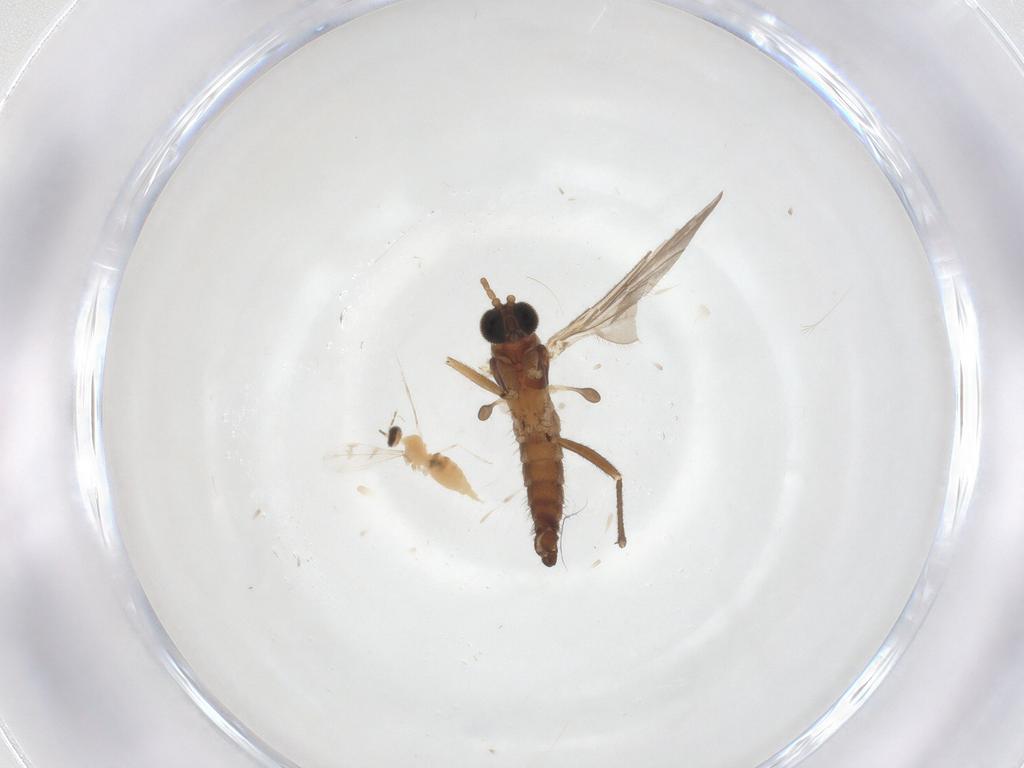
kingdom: Animalia
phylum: Arthropoda
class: Insecta
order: Diptera
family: Sciaridae
